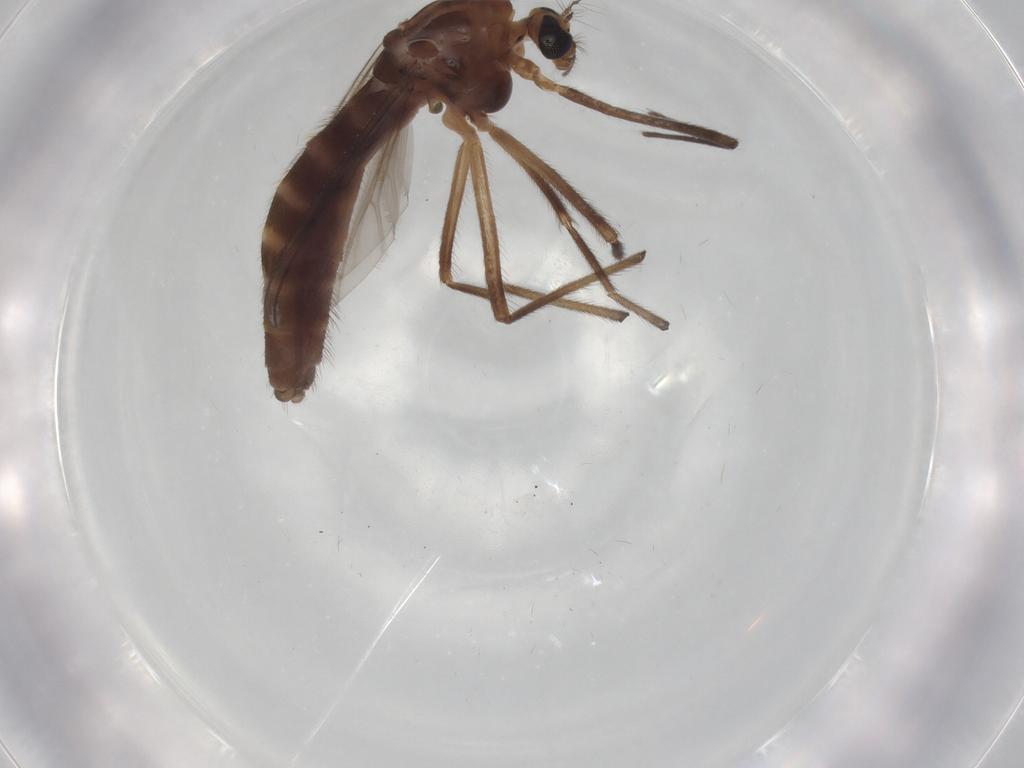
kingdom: Animalia
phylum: Arthropoda
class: Insecta
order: Diptera
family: Chironomidae
